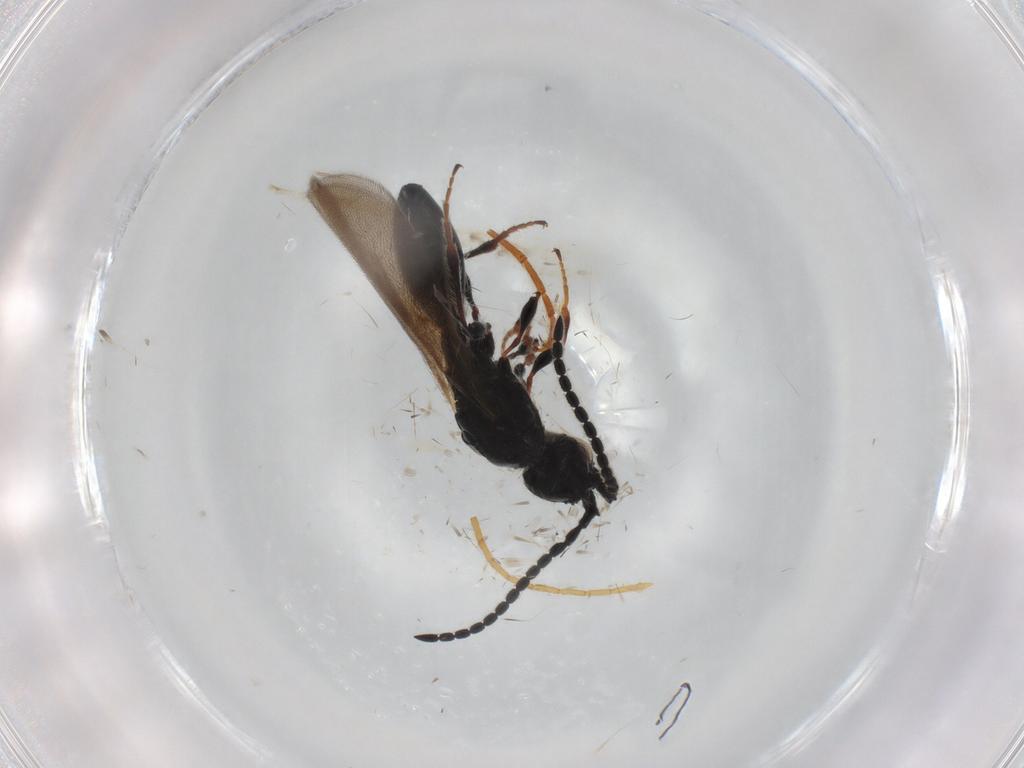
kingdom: Animalia
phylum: Arthropoda
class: Insecta
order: Hymenoptera
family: Diapriidae
